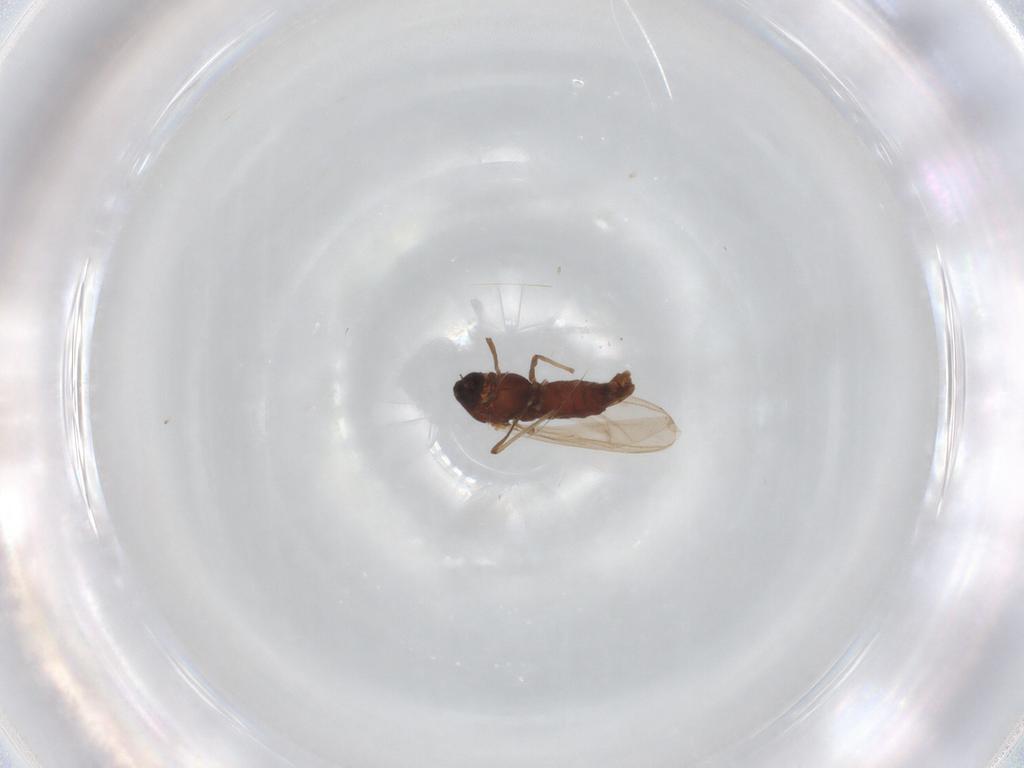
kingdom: Animalia
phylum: Arthropoda
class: Insecta
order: Diptera
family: Chironomidae
